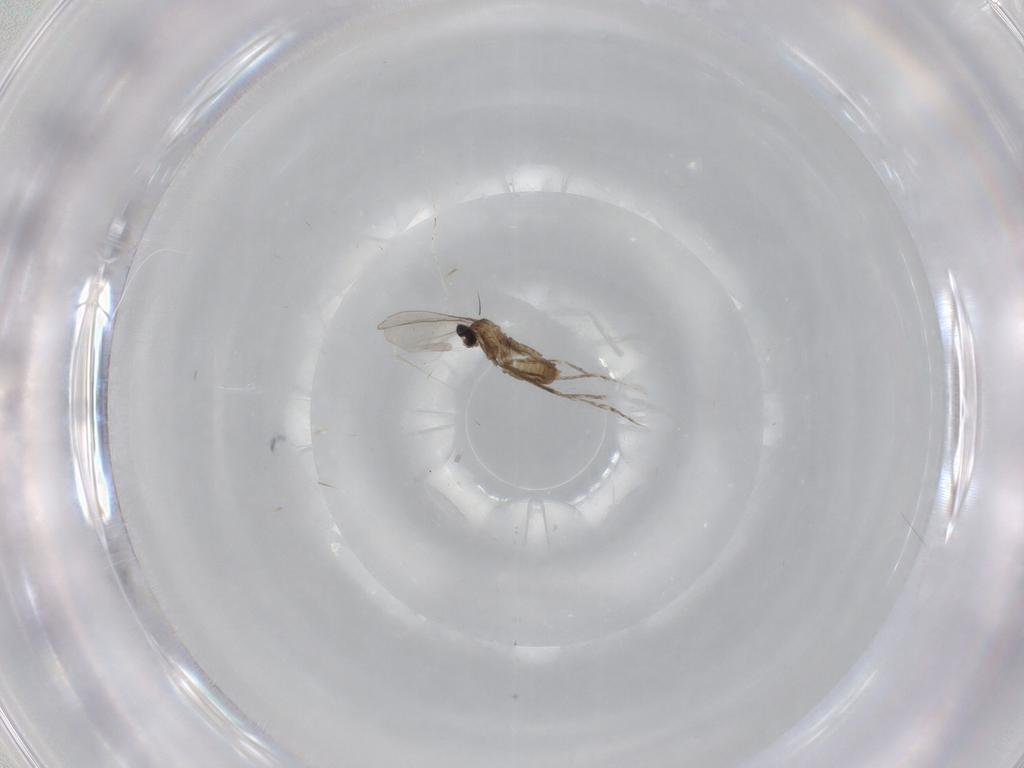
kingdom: Animalia
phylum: Arthropoda
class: Insecta
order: Diptera
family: Cecidomyiidae
